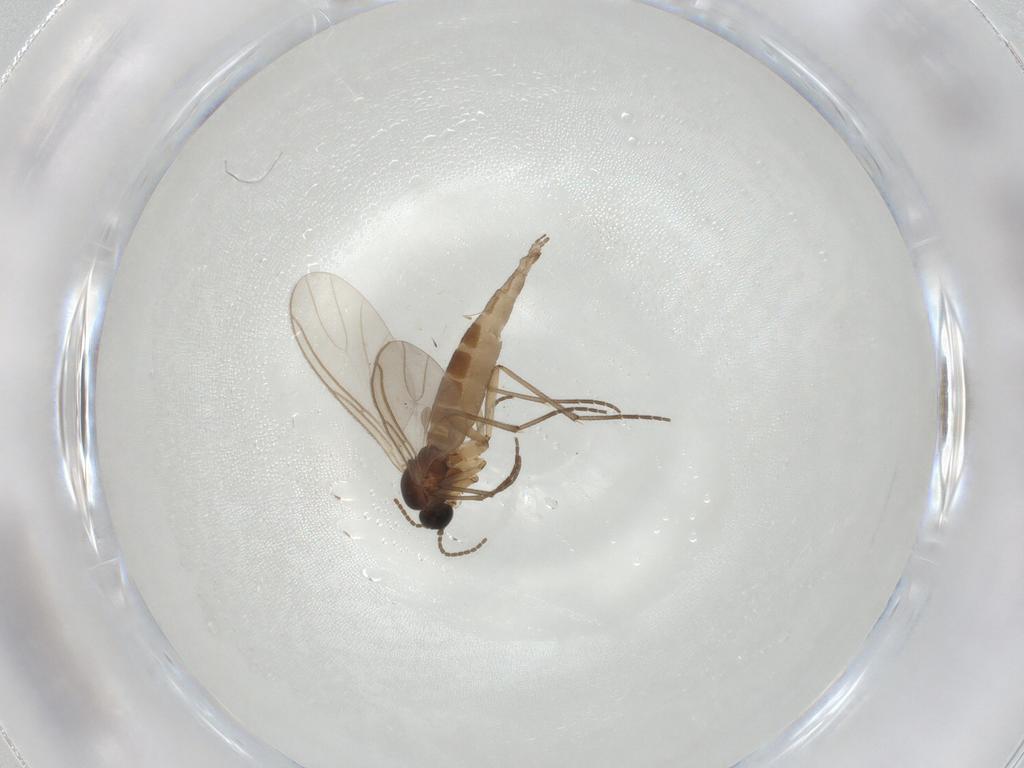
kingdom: Animalia
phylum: Arthropoda
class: Insecta
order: Diptera
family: Sciaridae
